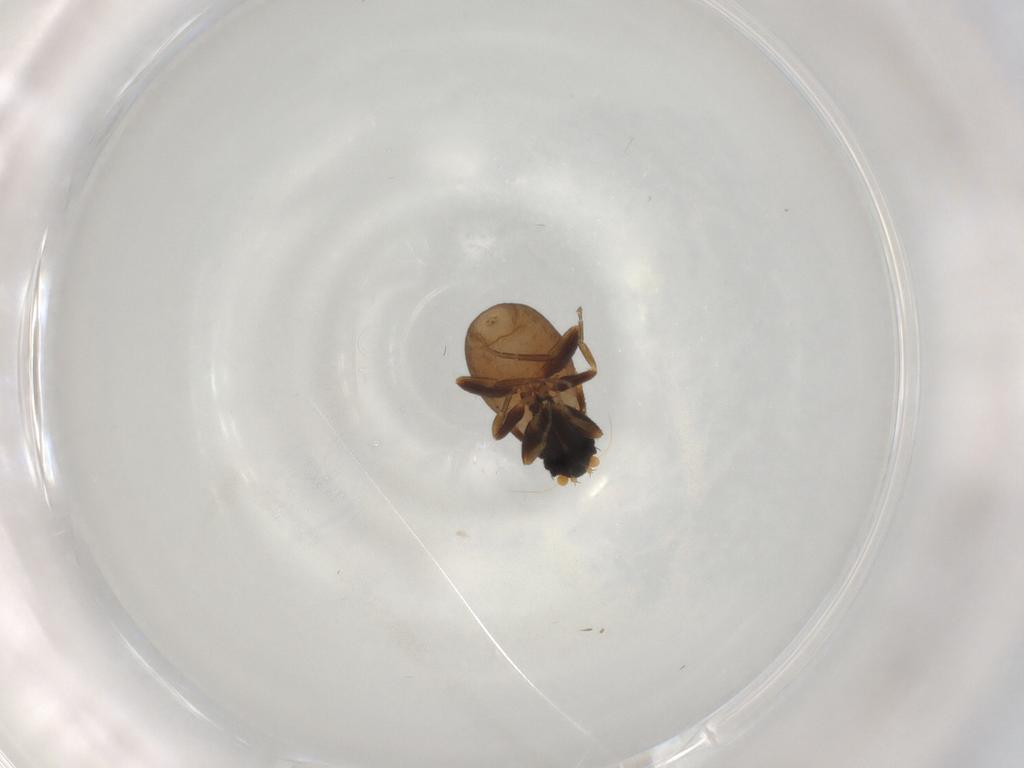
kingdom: Animalia
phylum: Arthropoda
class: Insecta
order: Diptera
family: Phoridae
